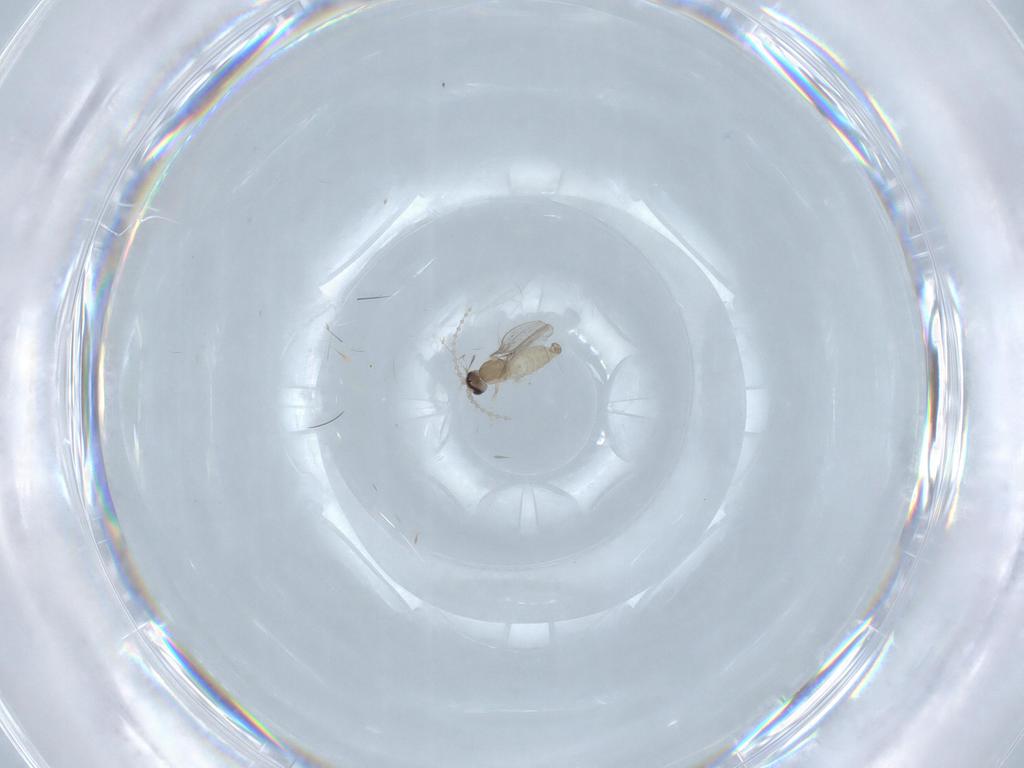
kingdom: Animalia
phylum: Arthropoda
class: Insecta
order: Diptera
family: Cecidomyiidae
